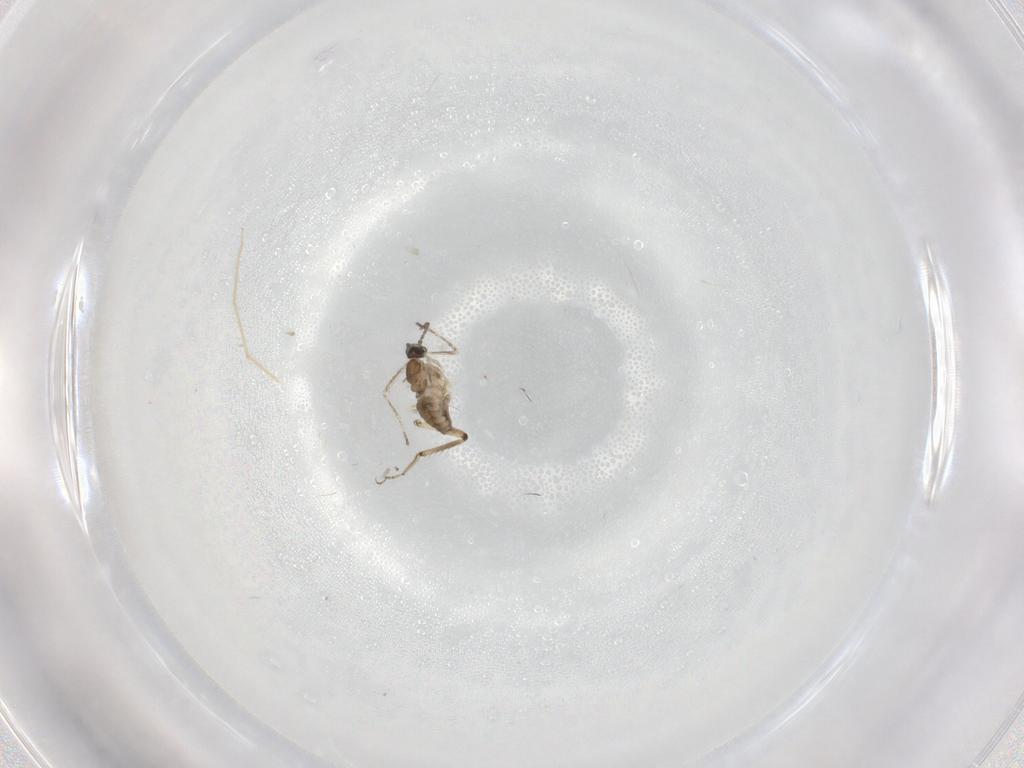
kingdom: Animalia
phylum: Arthropoda
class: Insecta
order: Diptera
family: Cecidomyiidae
